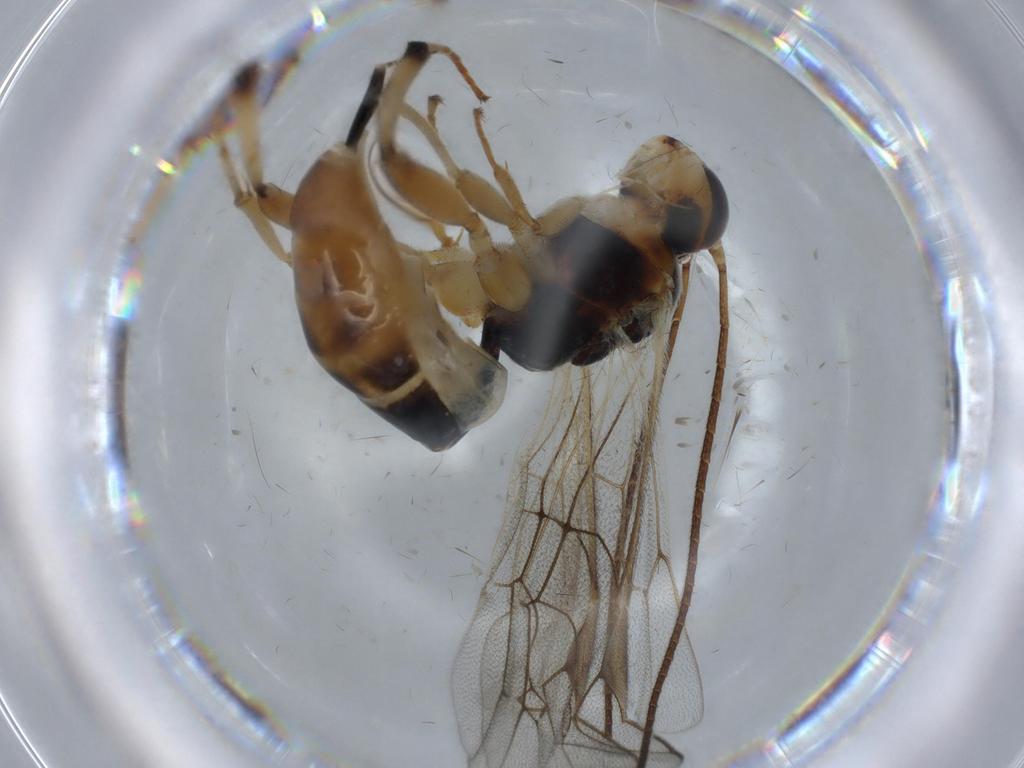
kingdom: Animalia
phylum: Arthropoda
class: Insecta
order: Hymenoptera
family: Ichneumonidae
